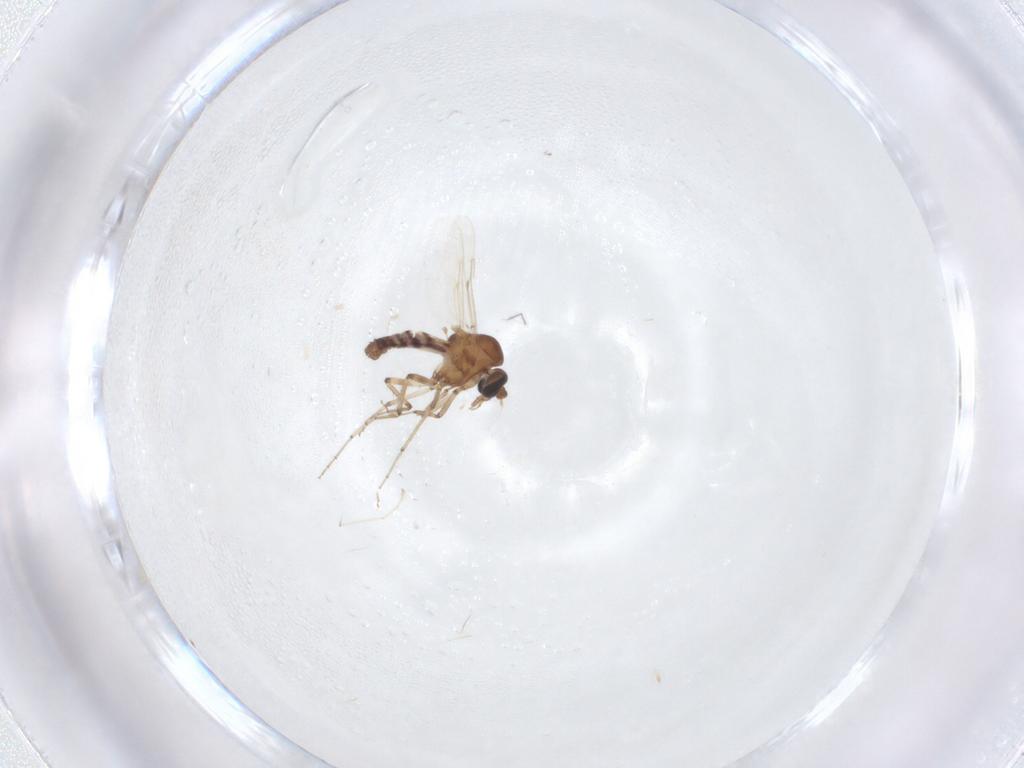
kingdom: Animalia
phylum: Arthropoda
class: Insecta
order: Diptera
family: Ceratopogonidae
